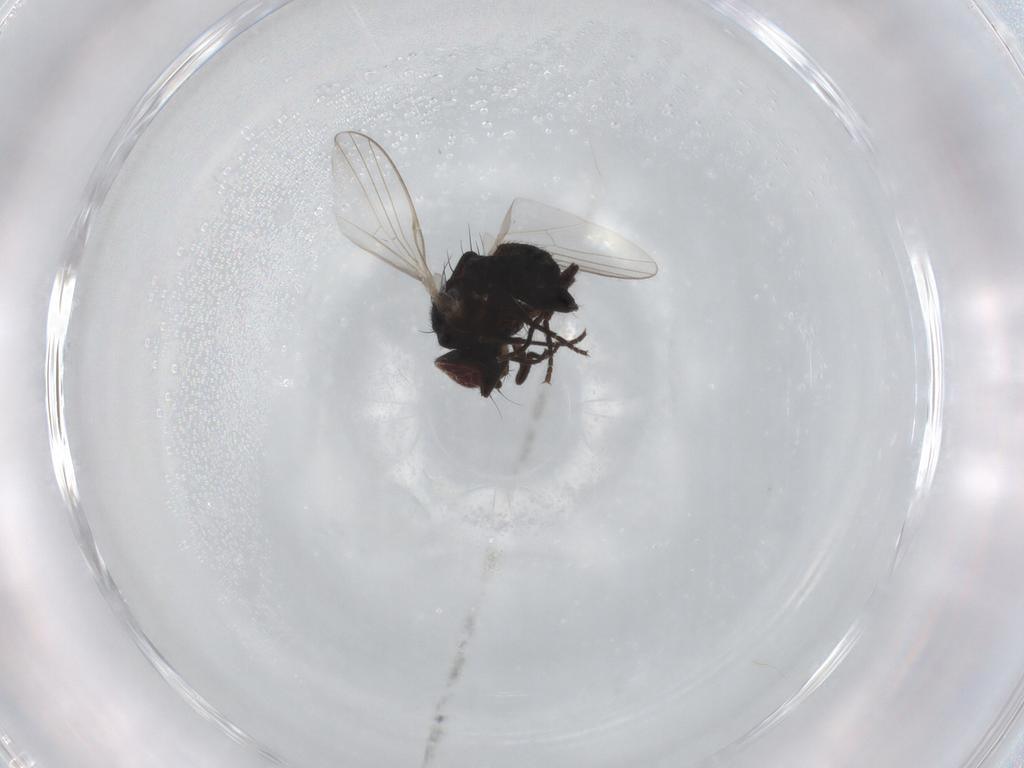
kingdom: Animalia
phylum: Arthropoda
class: Insecta
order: Diptera
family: Agromyzidae
